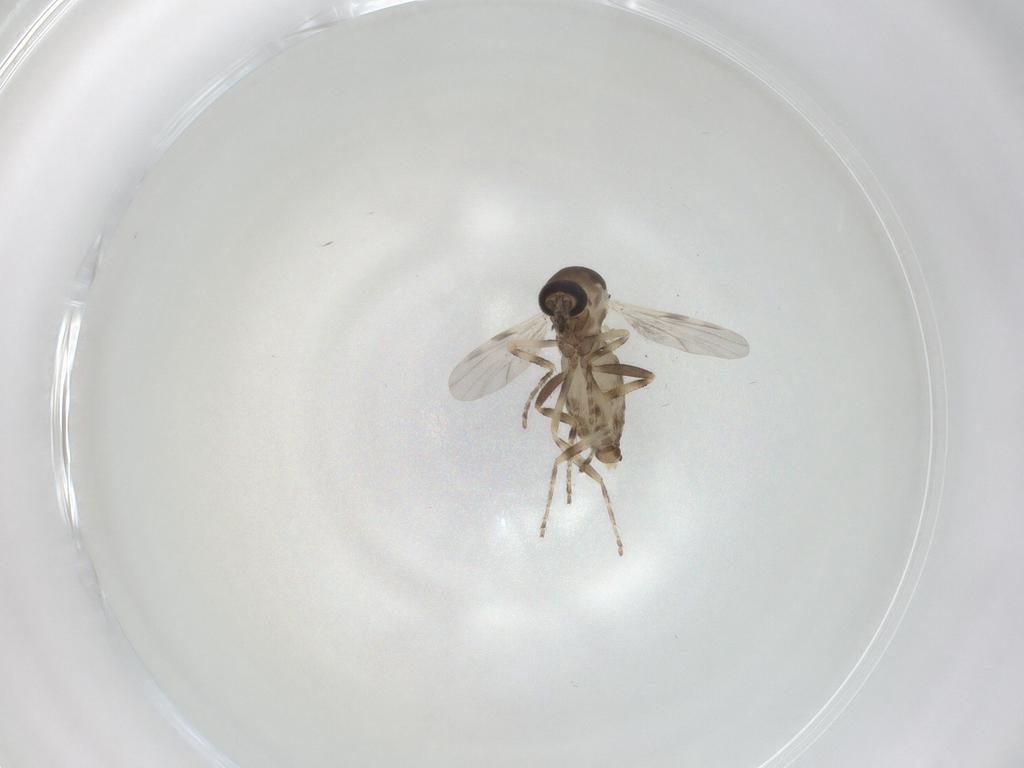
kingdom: Animalia
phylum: Arthropoda
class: Insecta
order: Diptera
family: Ceratopogonidae
